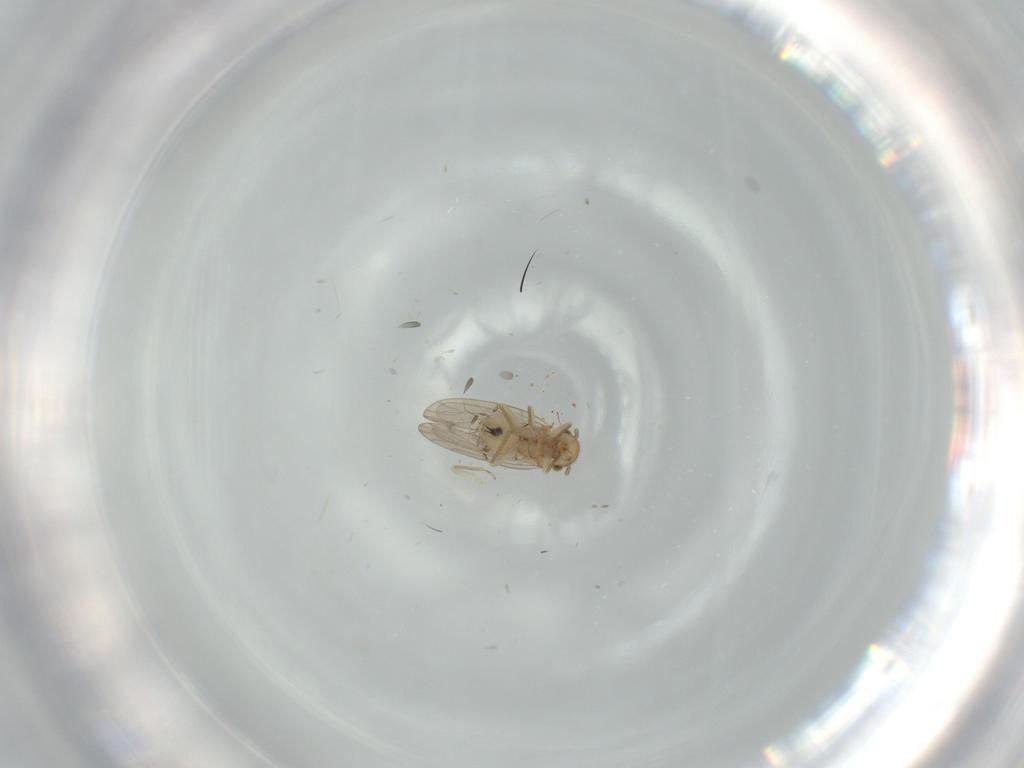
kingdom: Animalia
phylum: Arthropoda
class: Insecta
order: Psocodea
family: Ectopsocidae
